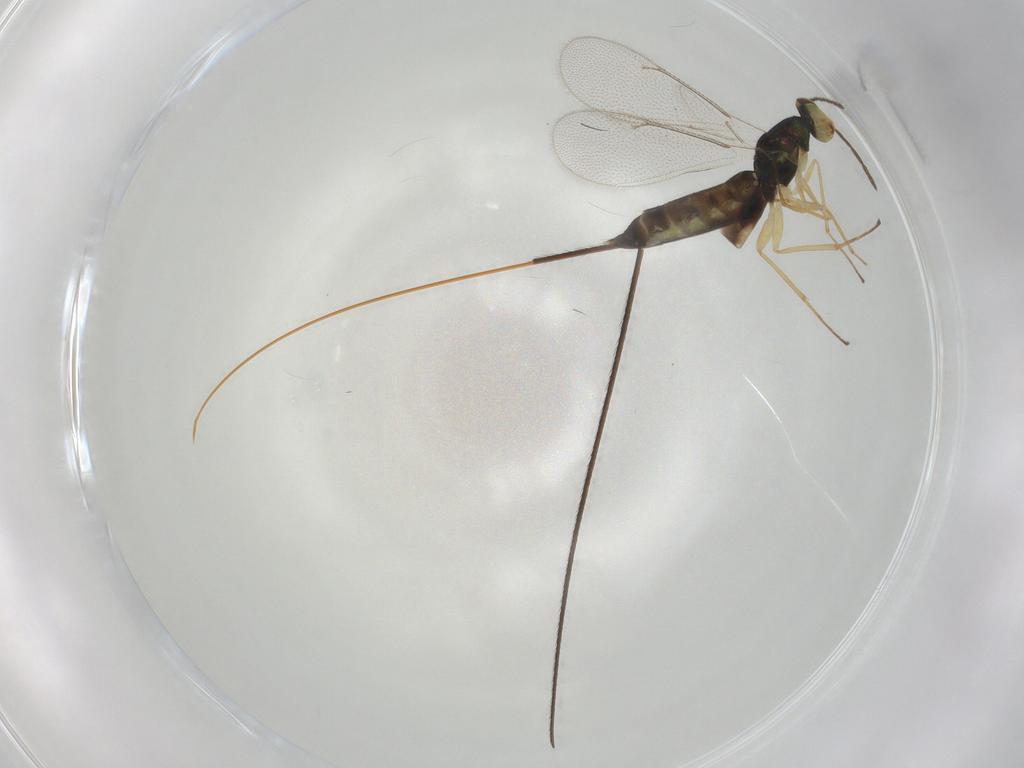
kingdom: Animalia
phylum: Arthropoda
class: Insecta
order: Hymenoptera
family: Eulophidae
